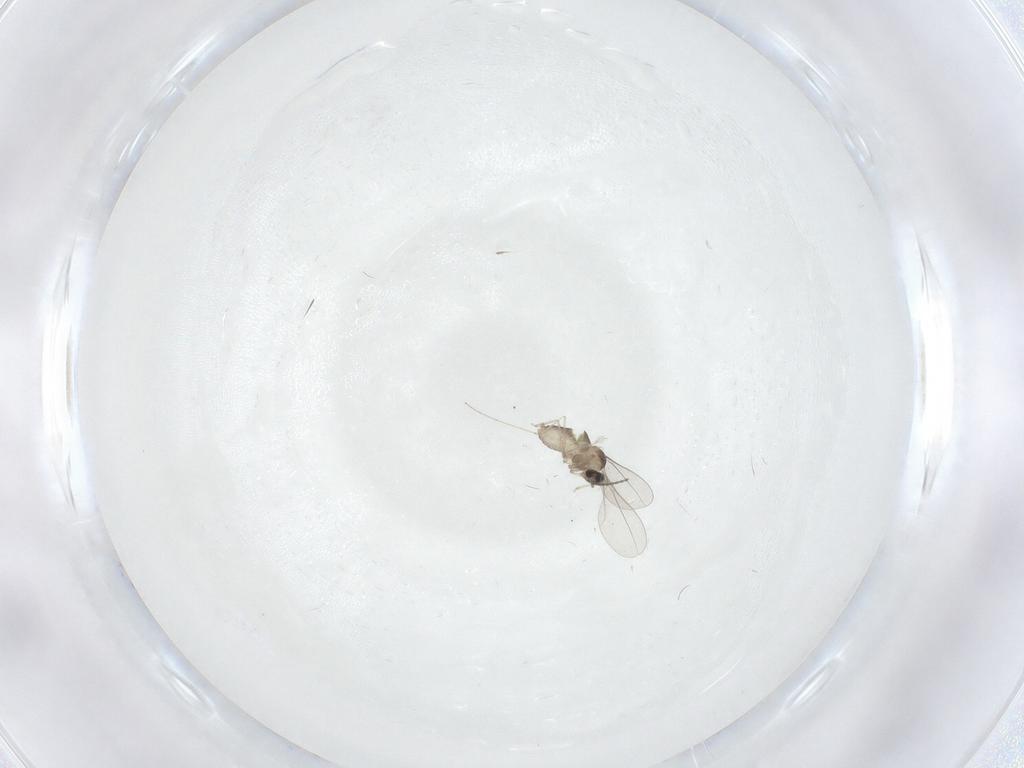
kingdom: Animalia
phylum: Arthropoda
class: Insecta
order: Diptera
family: Cecidomyiidae
